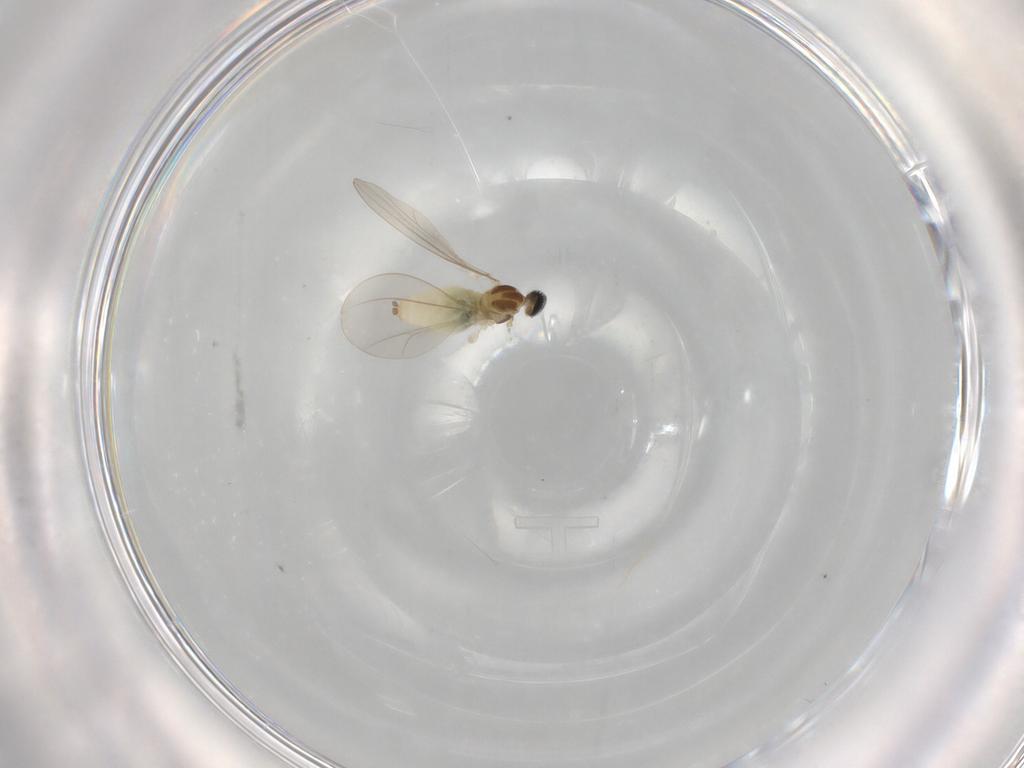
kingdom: Animalia
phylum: Arthropoda
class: Insecta
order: Diptera
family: Cecidomyiidae
